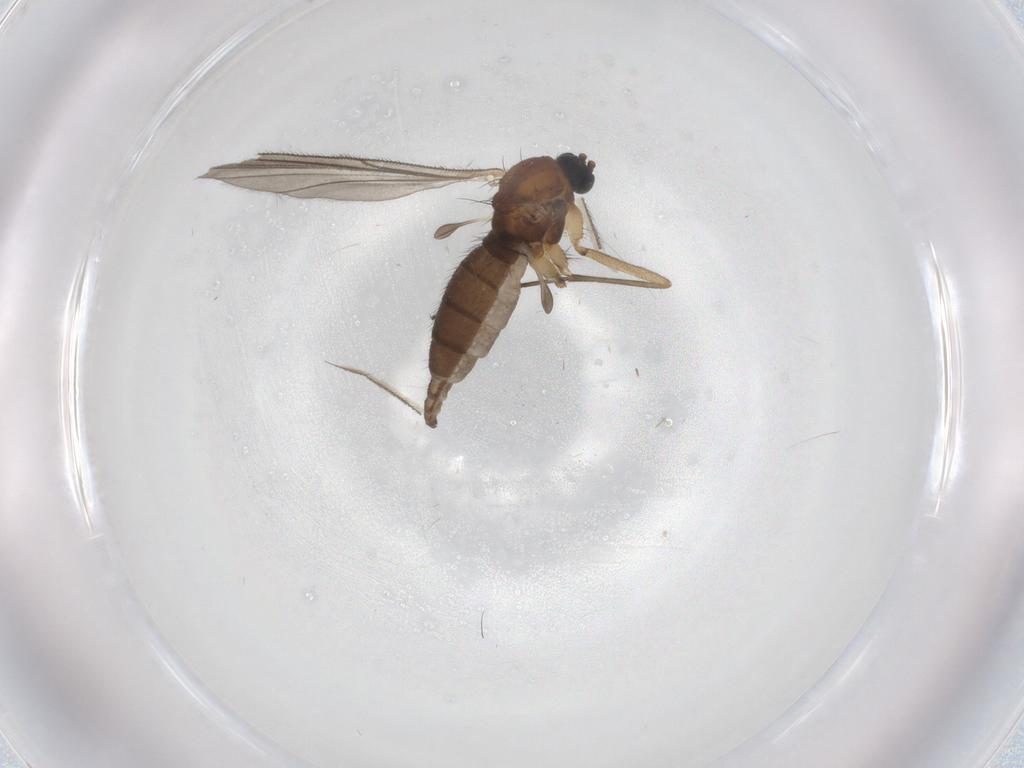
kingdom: Animalia
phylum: Arthropoda
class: Insecta
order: Diptera
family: Sciaridae
